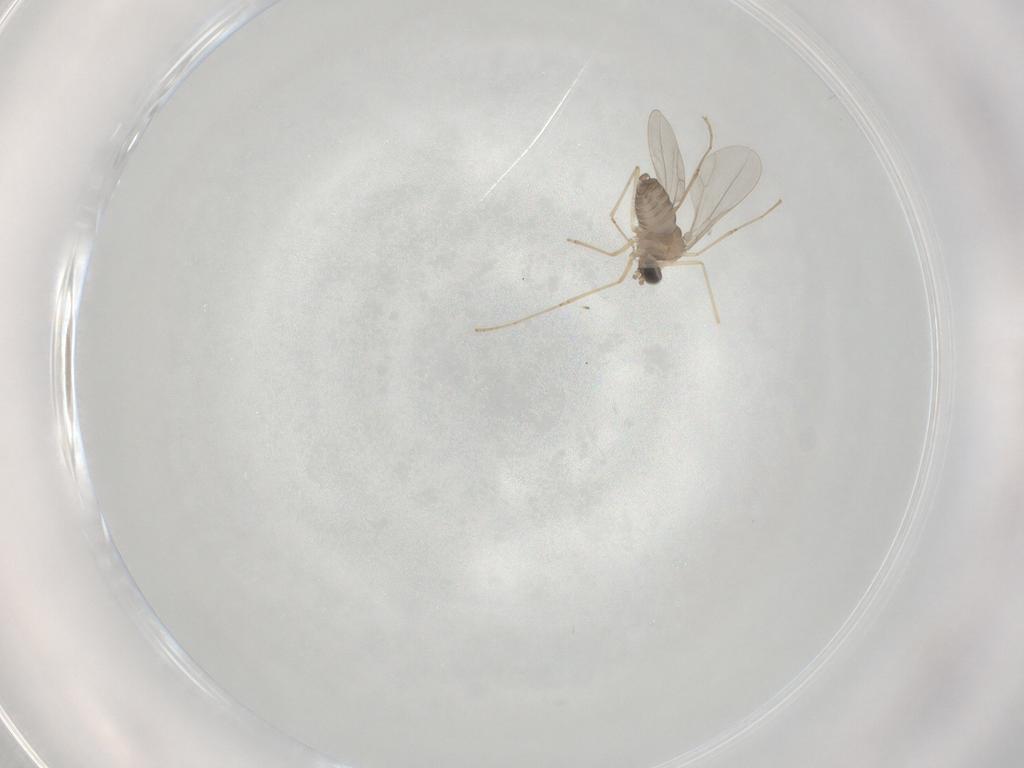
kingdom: Animalia
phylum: Arthropoda
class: Insecta
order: Diptera
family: Cecidomyiidae
